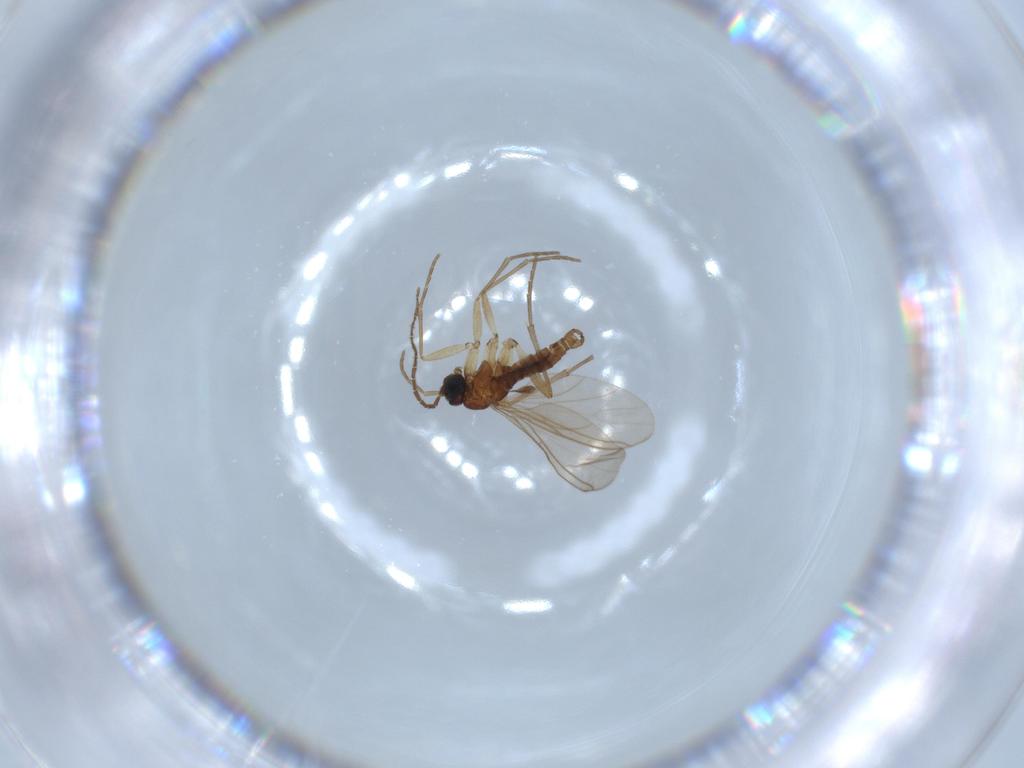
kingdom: Animalia
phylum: Arthropoda
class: Insecta
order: Diptera
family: Sciaridae
